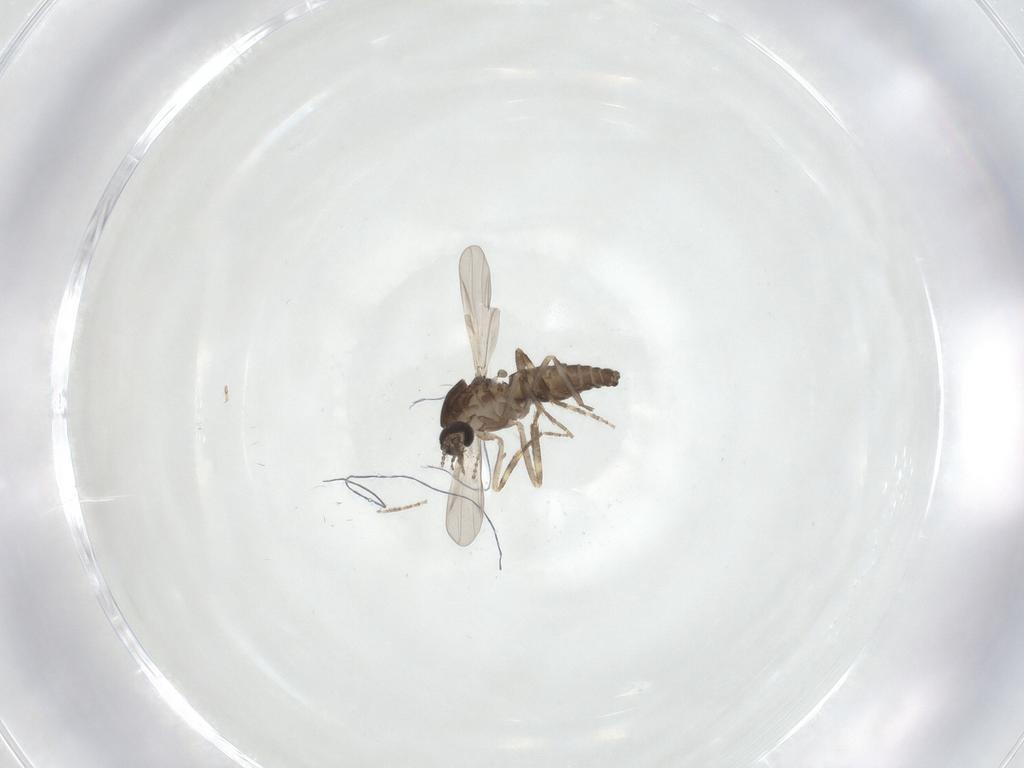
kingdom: Animalia
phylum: Arthropoda
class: Insecta
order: Diptera
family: Ceratopogonidae
